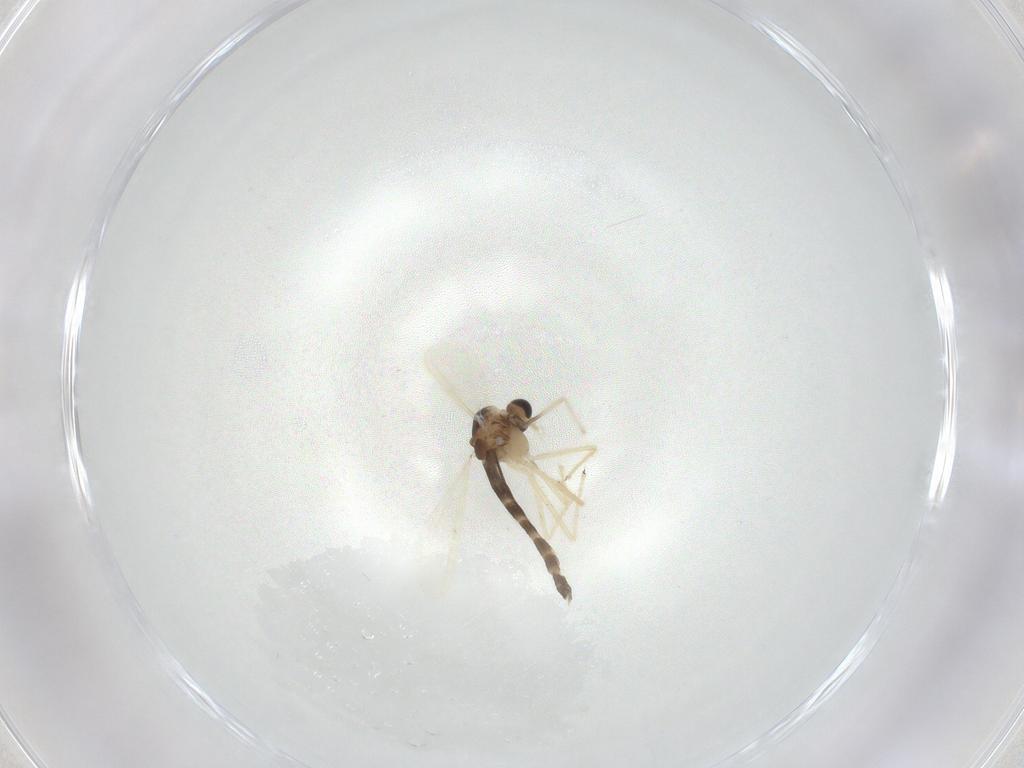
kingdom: Animalia
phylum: Arthropoda
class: Insecta
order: Diptera
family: Chironomidae
